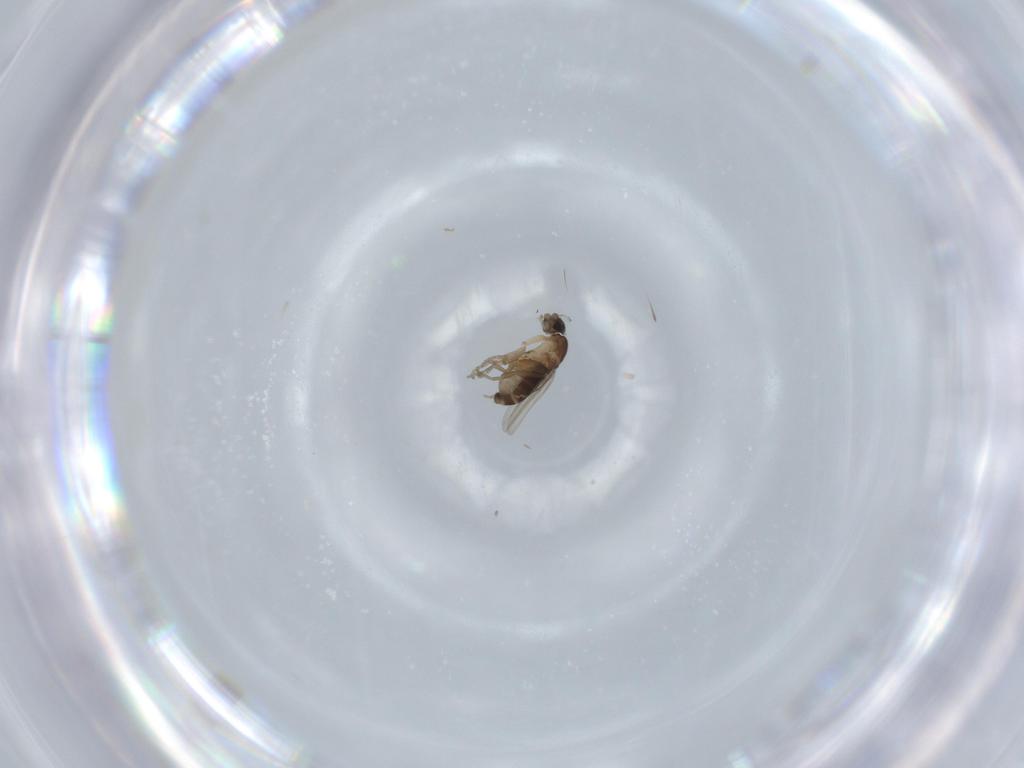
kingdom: Animalia
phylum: Arthropoda
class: Insecta
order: Diptera
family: Phoridae
